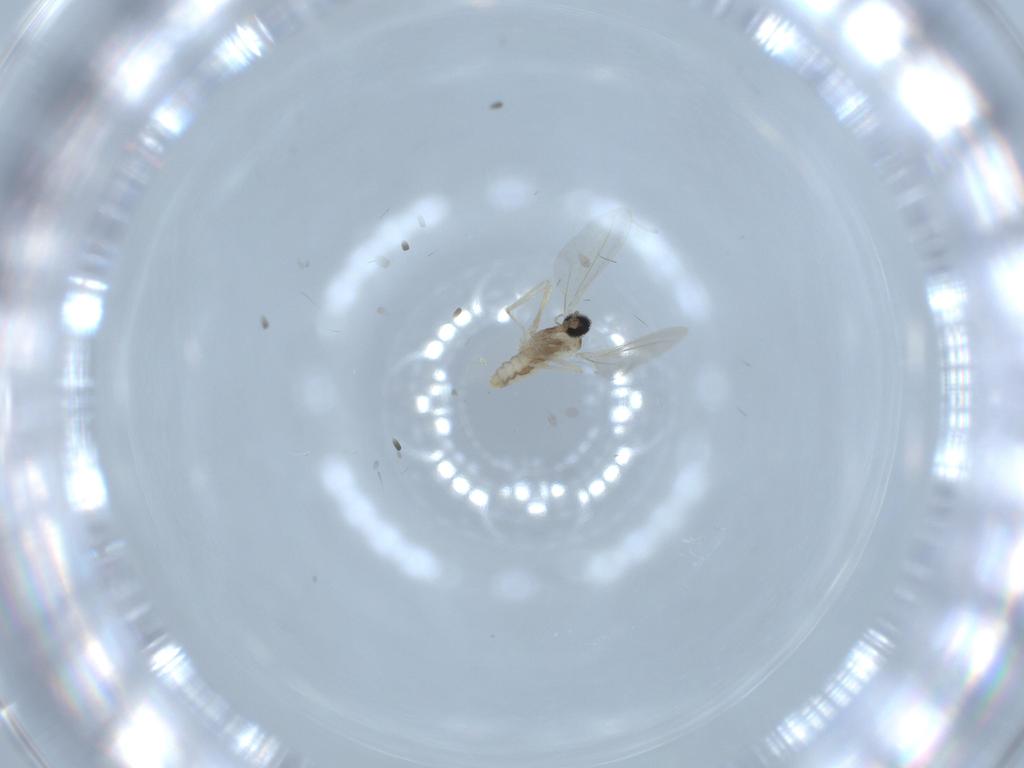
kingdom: Animalia
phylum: Arthropoda
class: Insecta
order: Diptera
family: Cecidomyiidae
